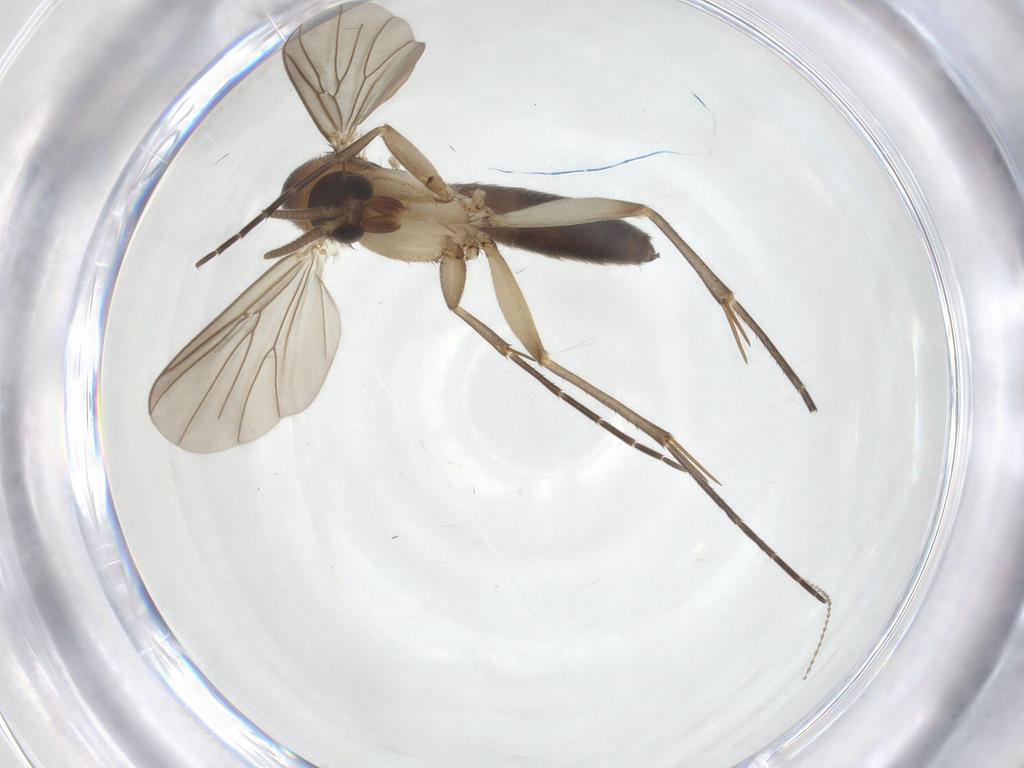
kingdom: Animalia
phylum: Arthropoda
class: Insecta
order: Diptera
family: Mycetophilidae
